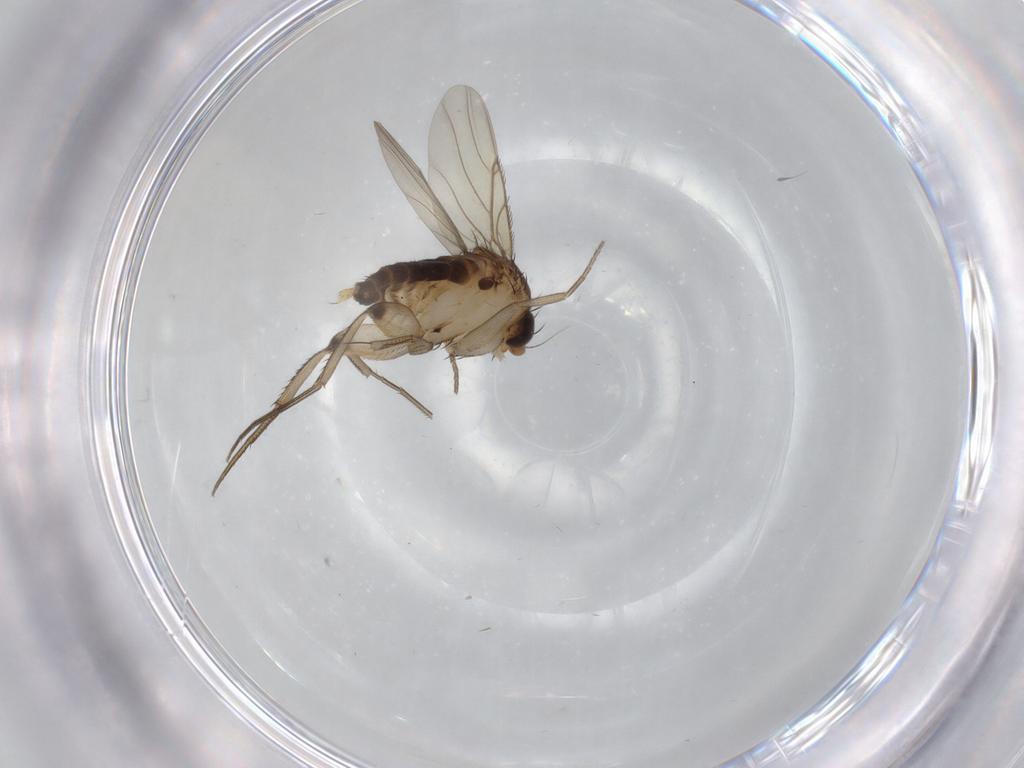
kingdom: Animalia
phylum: Arthropoda
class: Insecta
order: Diptera
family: Phoridae
